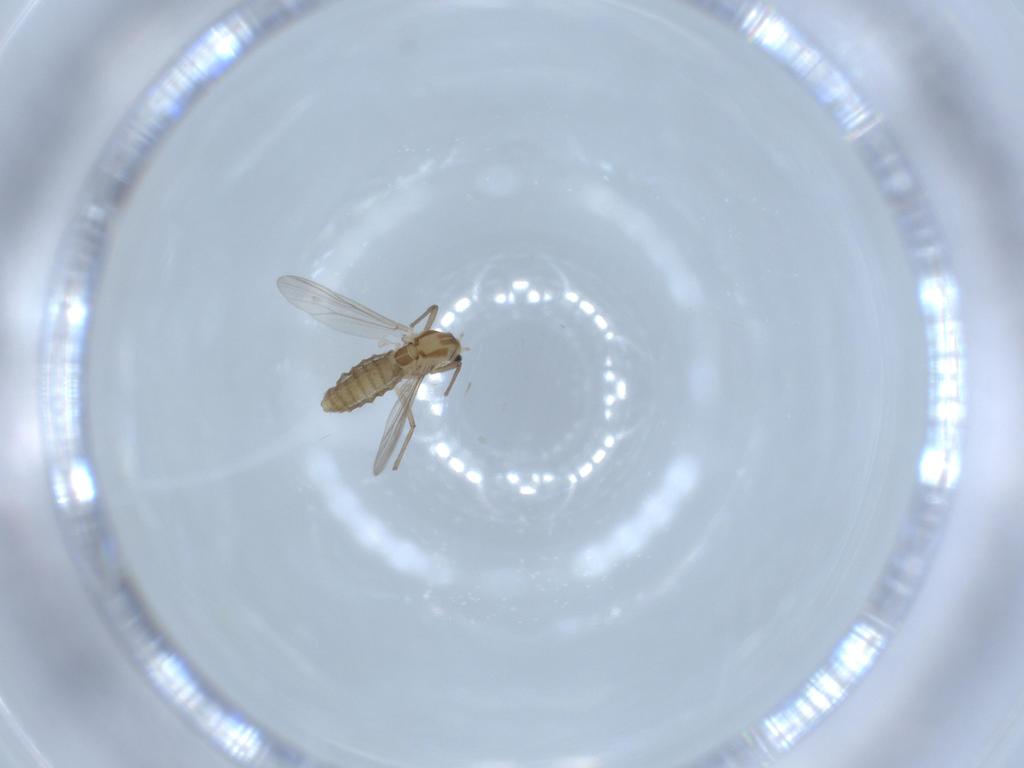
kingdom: Animalia
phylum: Arthropoda
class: Insecta
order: Diptera
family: Chironomidae
